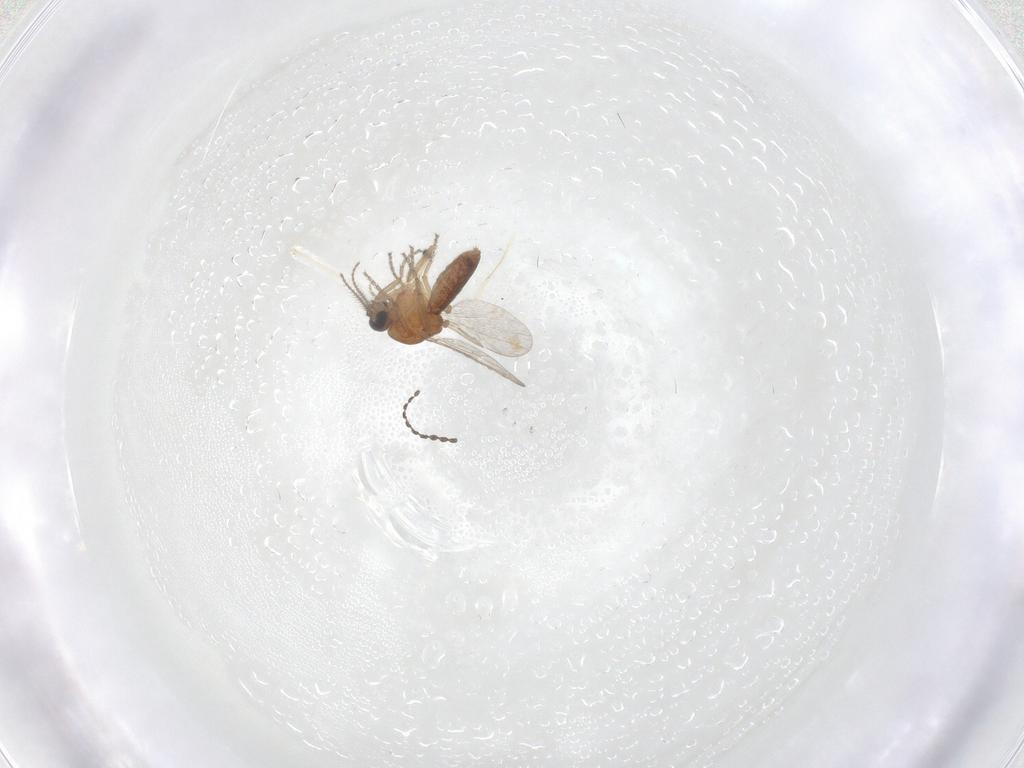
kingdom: Animalia
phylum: Arthropoda
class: Insecta
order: Diptera
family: Ceratopogonidae
